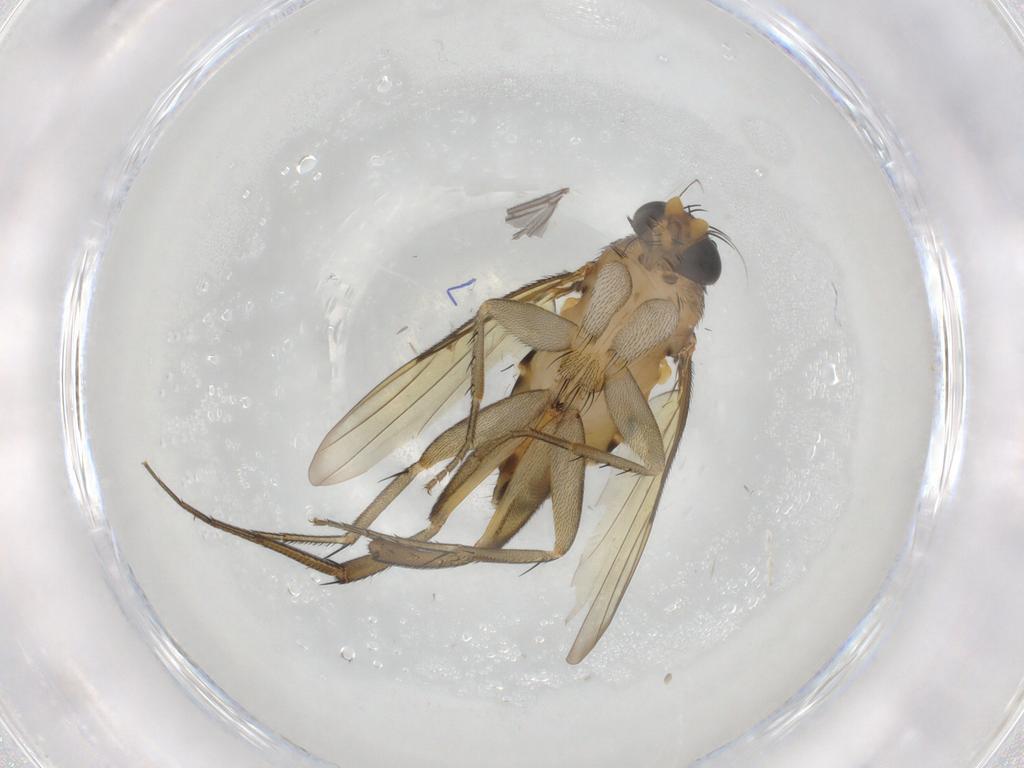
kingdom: Animalia
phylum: Arthropoda
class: Insecta
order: Diptera
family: Phoridae
